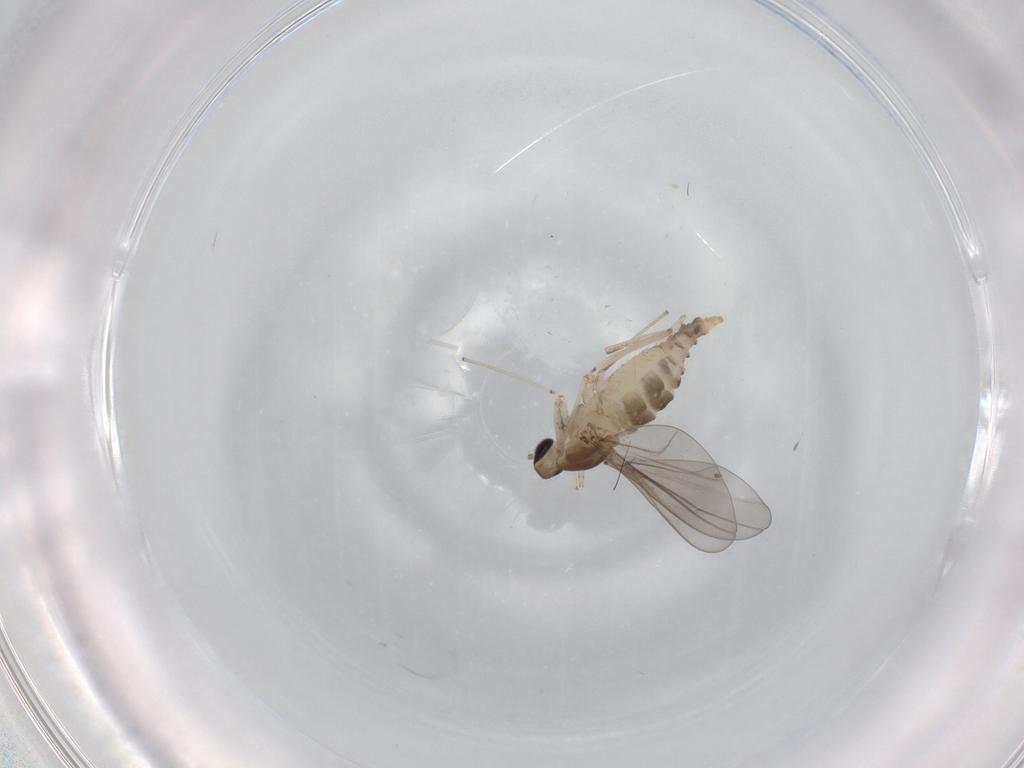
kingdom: Animalia
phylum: Arthropoda
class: Insecta
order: Diptera
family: Cecidomyiidae
